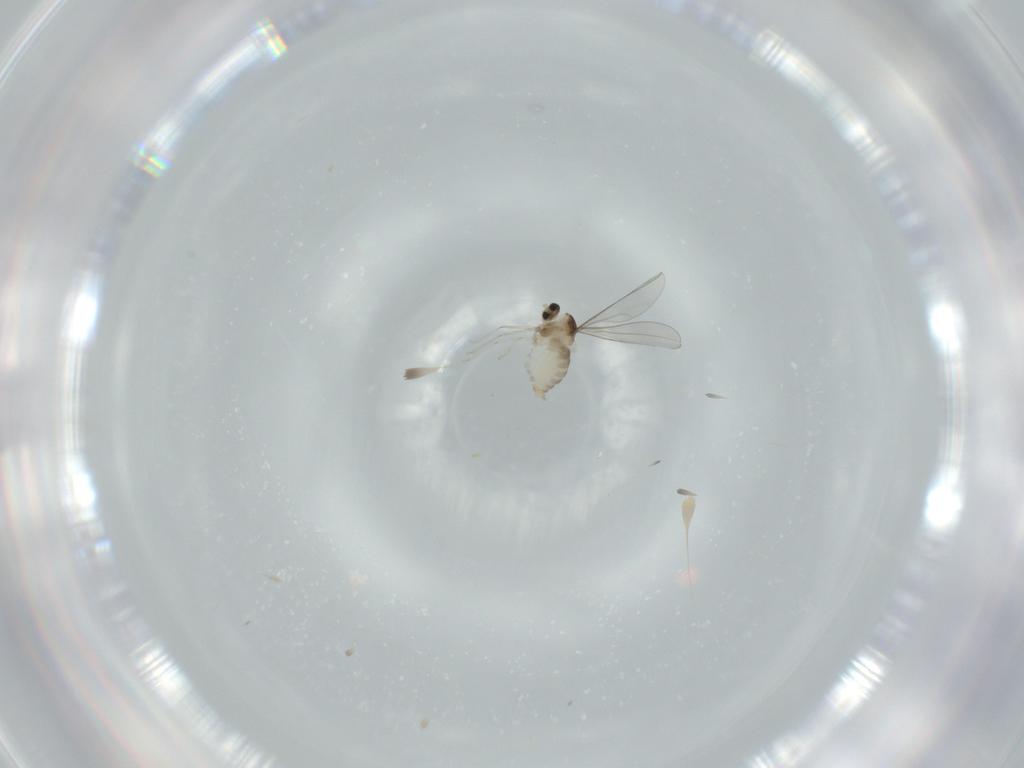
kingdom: Animalia
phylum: Arthropoda
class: Insecta
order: Diptera
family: Cecidomyiidae
